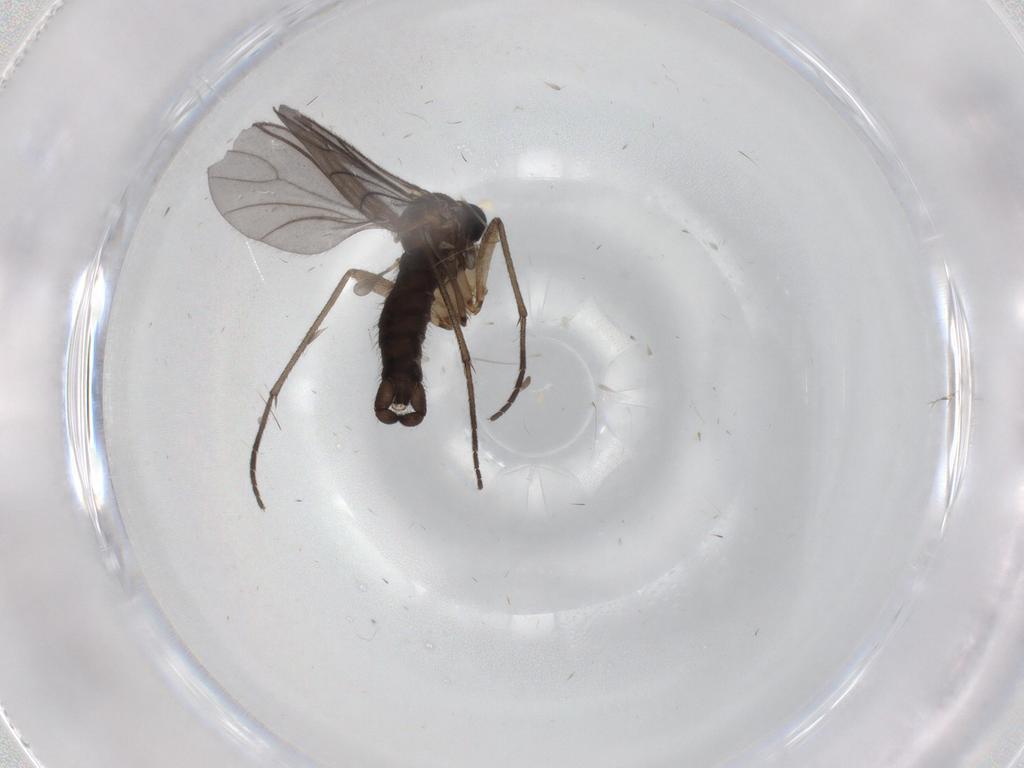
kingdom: Animalia
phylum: Arthropoda
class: Insecta
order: Diptera
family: Sciaridae
